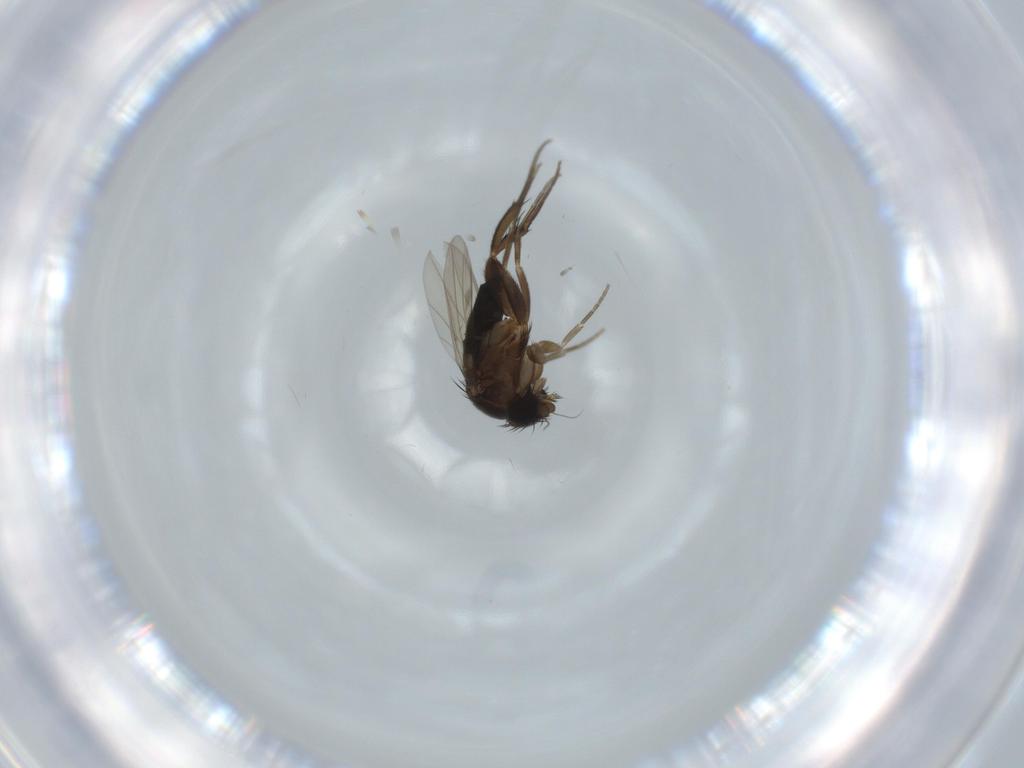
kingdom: Animalia
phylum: Arthropoda
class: Insecta
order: Diptera
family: Phoridae
